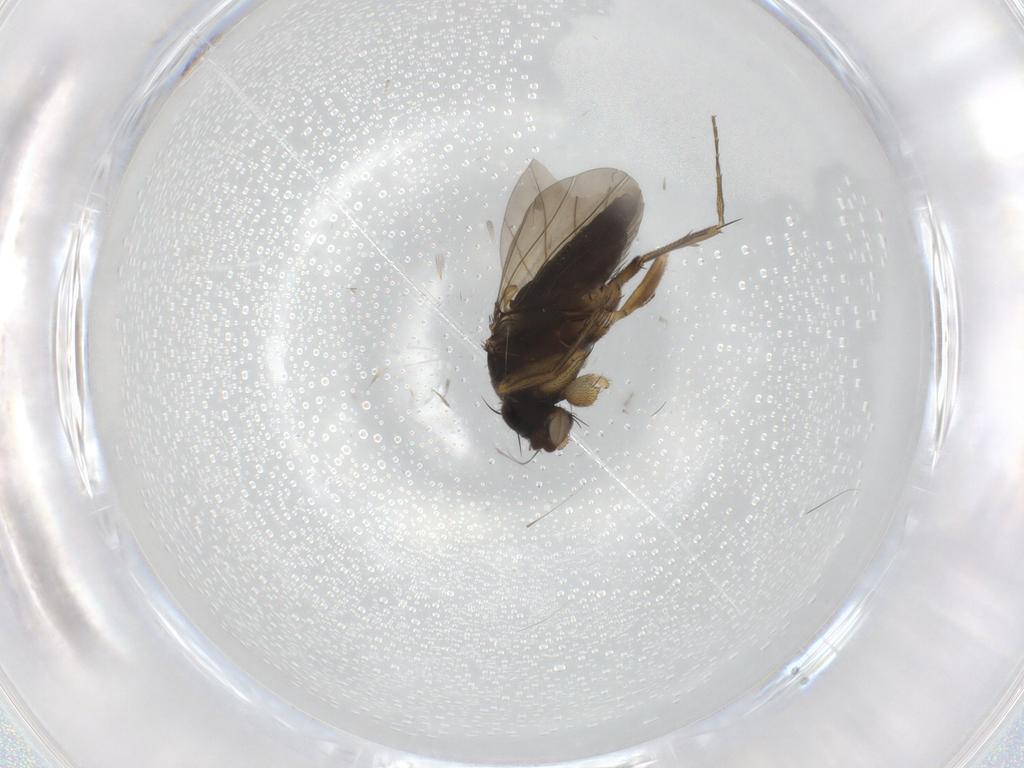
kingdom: Animalia
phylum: Arthropoda
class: Insecta
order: Diptera
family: Phoridae
